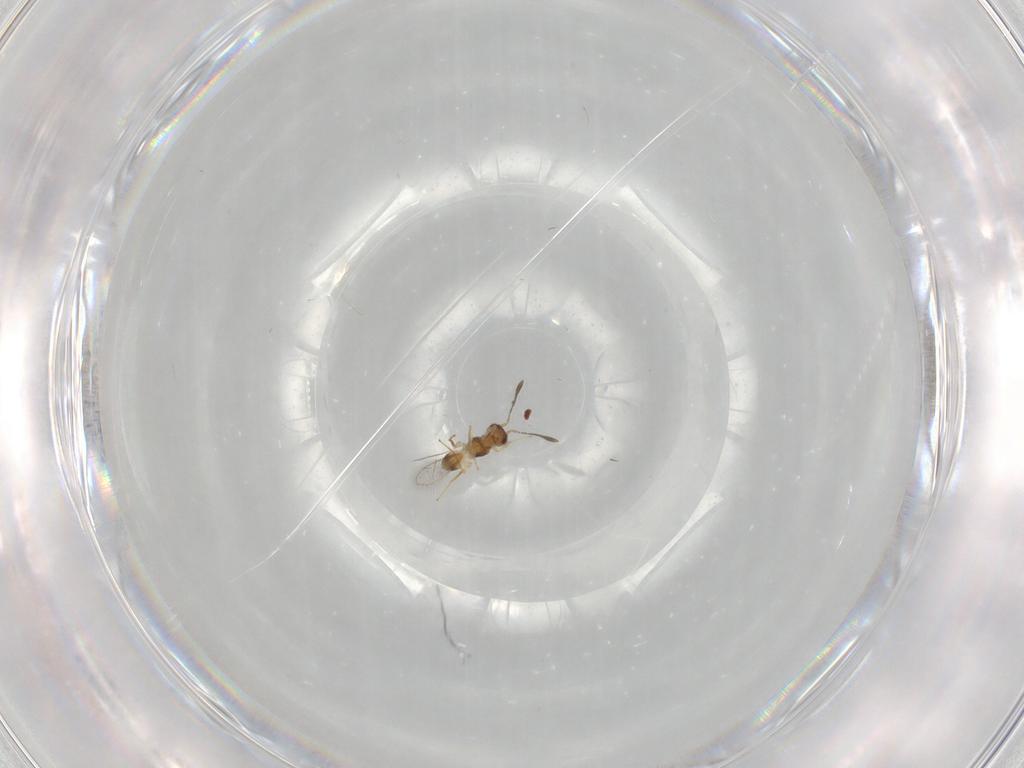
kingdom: Animalia
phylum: Arthropoda
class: Insecta
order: Hymenoptera
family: Mymaridae
